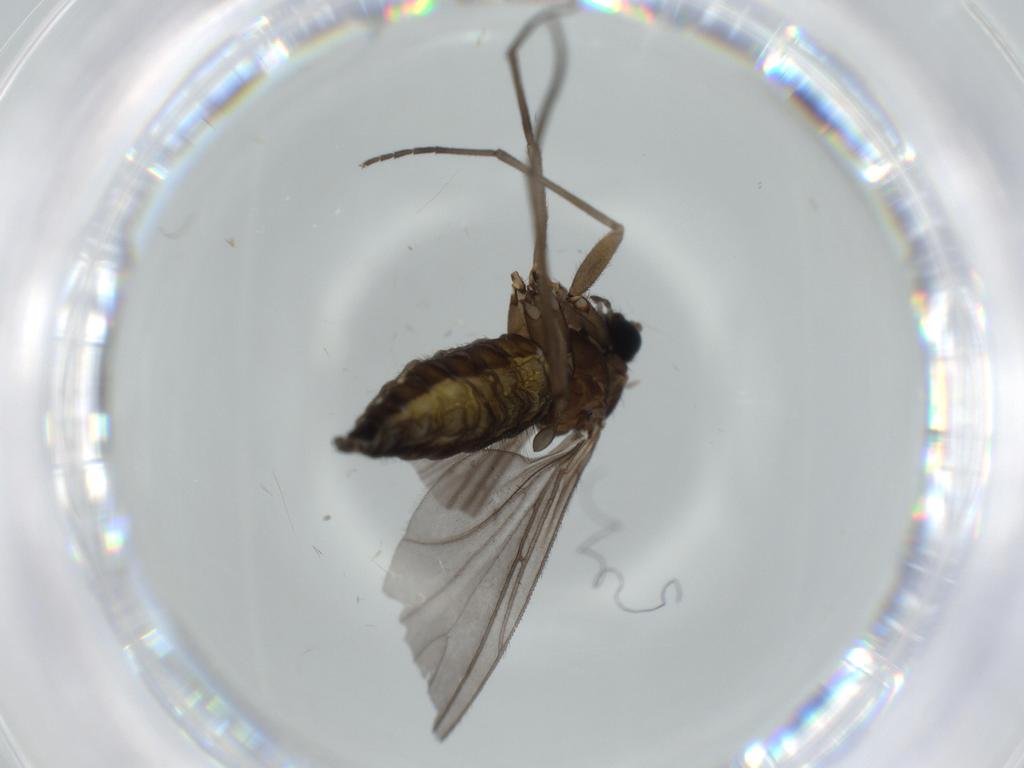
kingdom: Animalia
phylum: Arthropoda
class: Insecta
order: Diptera
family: Sciaridae
